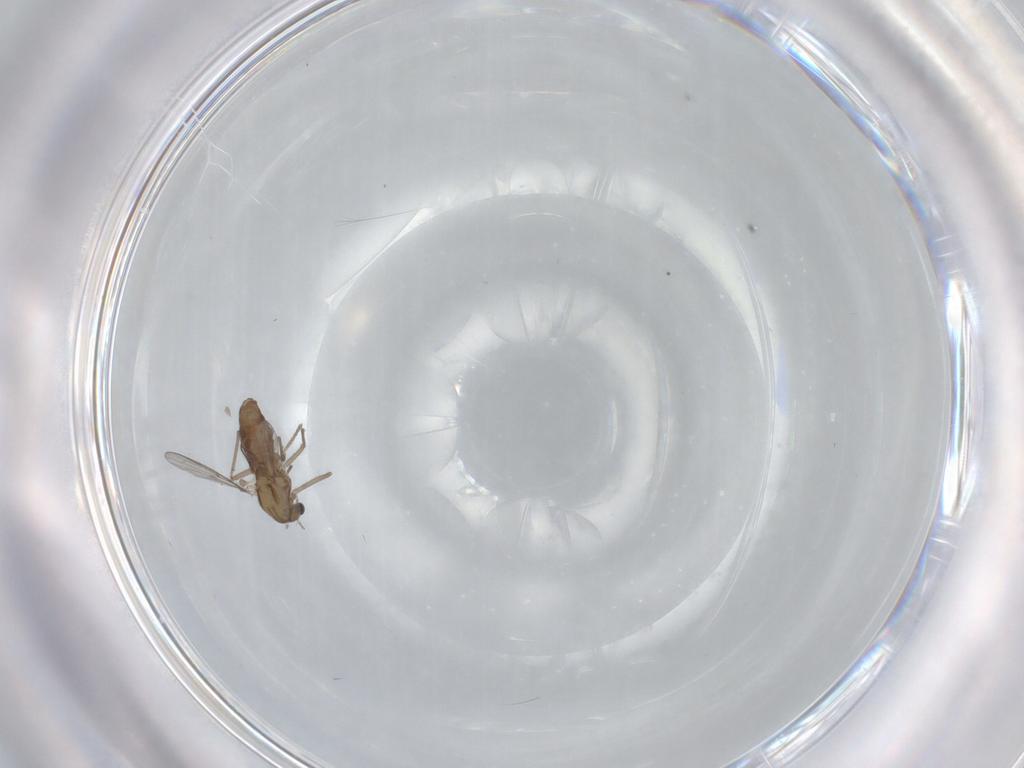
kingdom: Animalia
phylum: Arthropoda
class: Insecta
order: Diptera
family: Chironomidae
